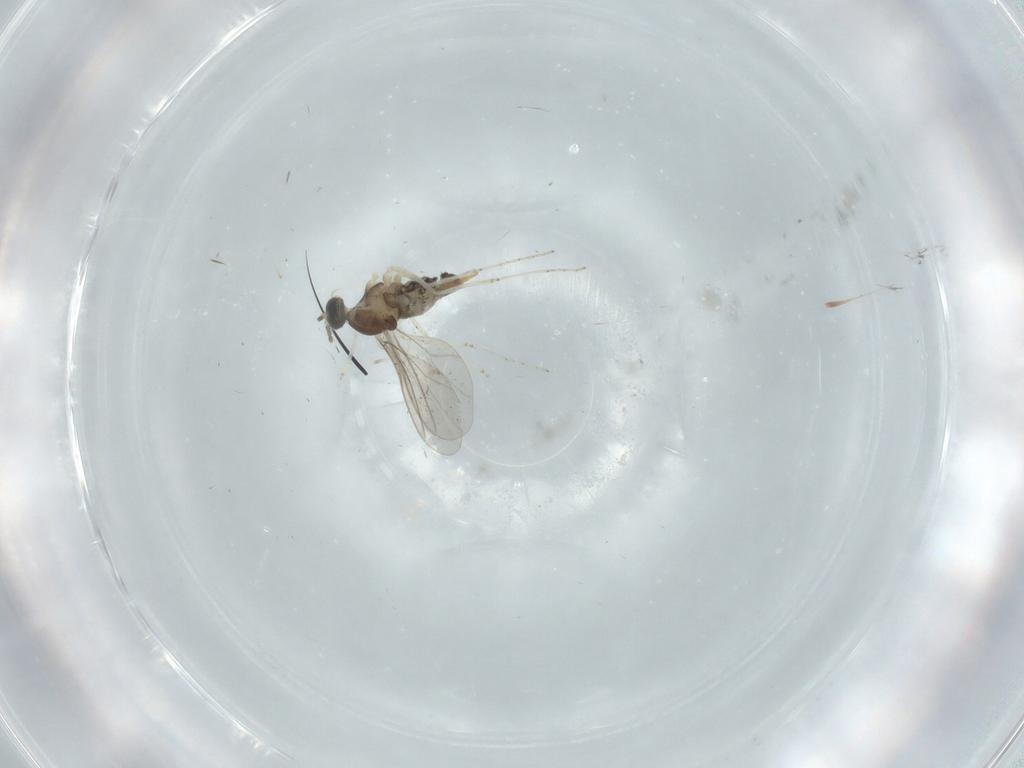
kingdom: Animalia
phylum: Arthropoda
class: Insecta
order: Diptera
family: Cecidomyiidae
